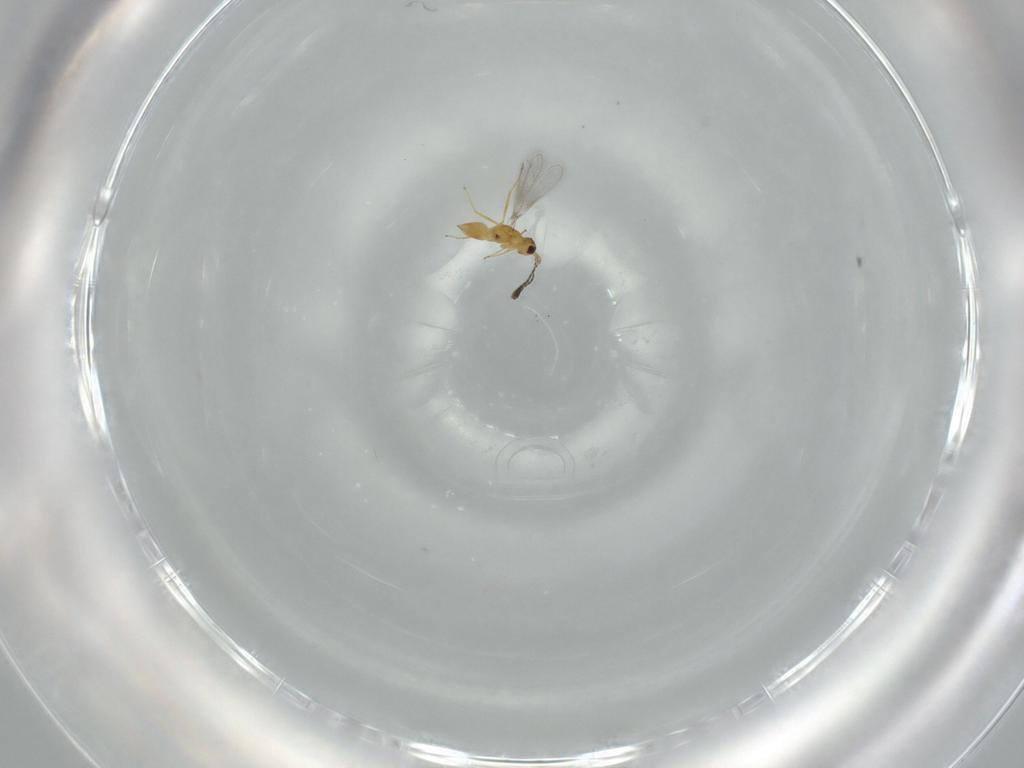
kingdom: Animalia
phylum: Arthropoda
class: Insecta
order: Hymenoptera
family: Mymaridae
